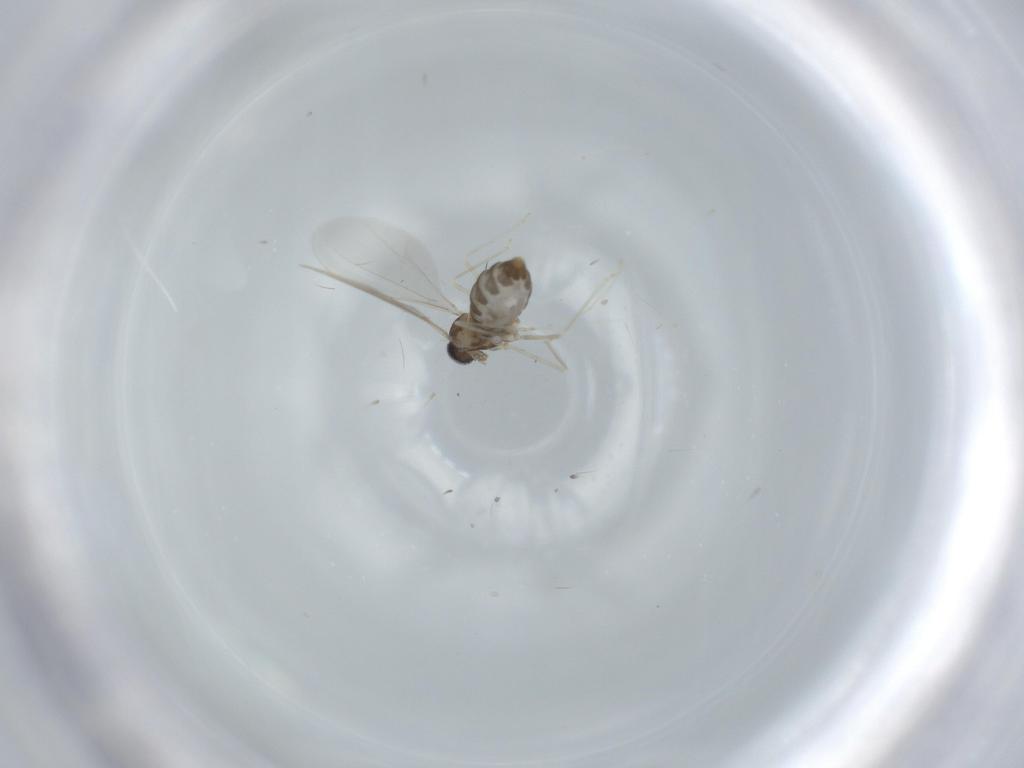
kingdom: Animalia
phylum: Arthropoda
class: Insecta
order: Diptera
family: Cecidomyiidae
